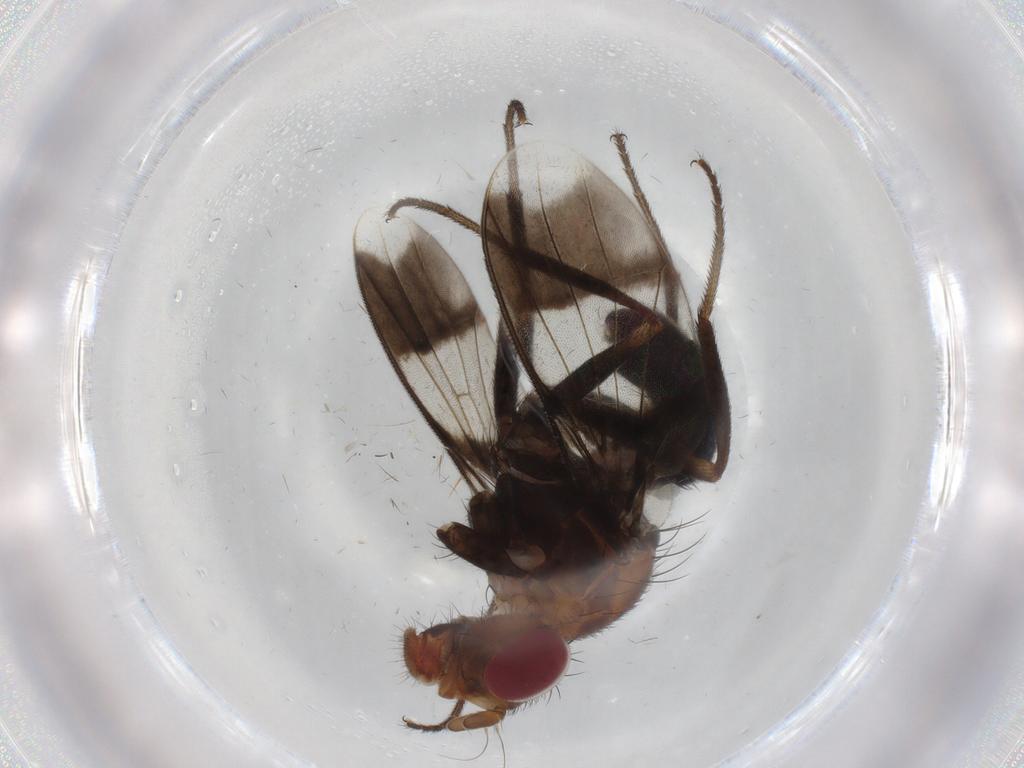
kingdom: Animalia
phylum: Arthropoda
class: Insecta
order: Diptera
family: Richardiidae
